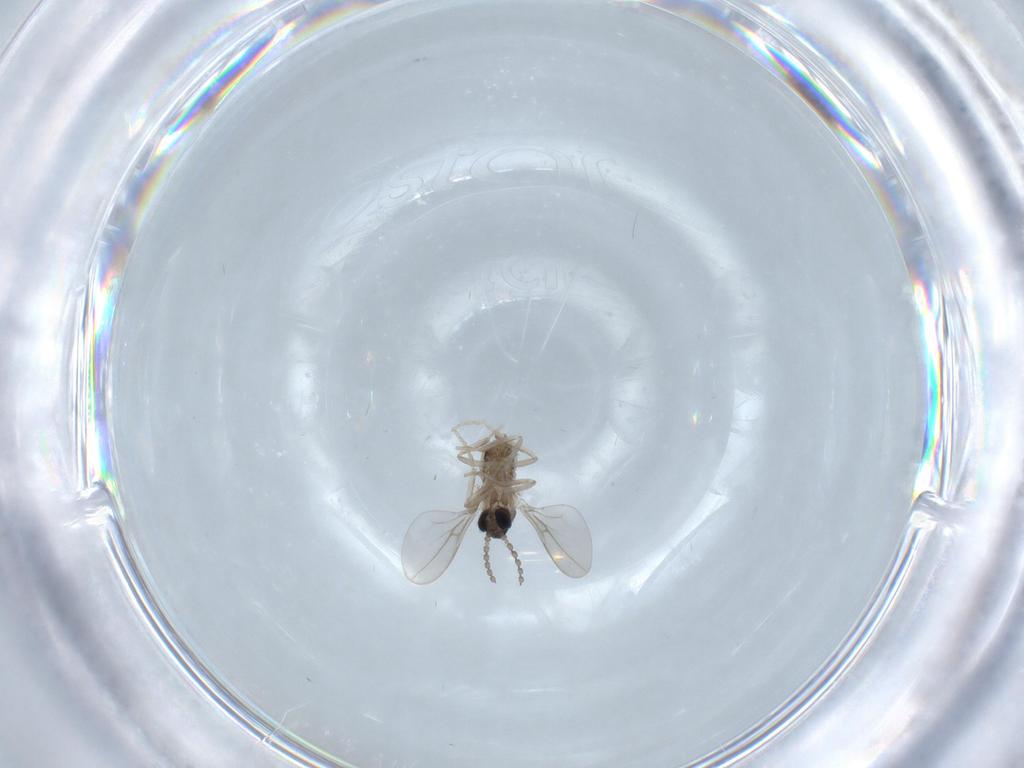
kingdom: Animalia
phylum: Arthropoda
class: Insecta
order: Diptera
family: Cecidomyiidae
